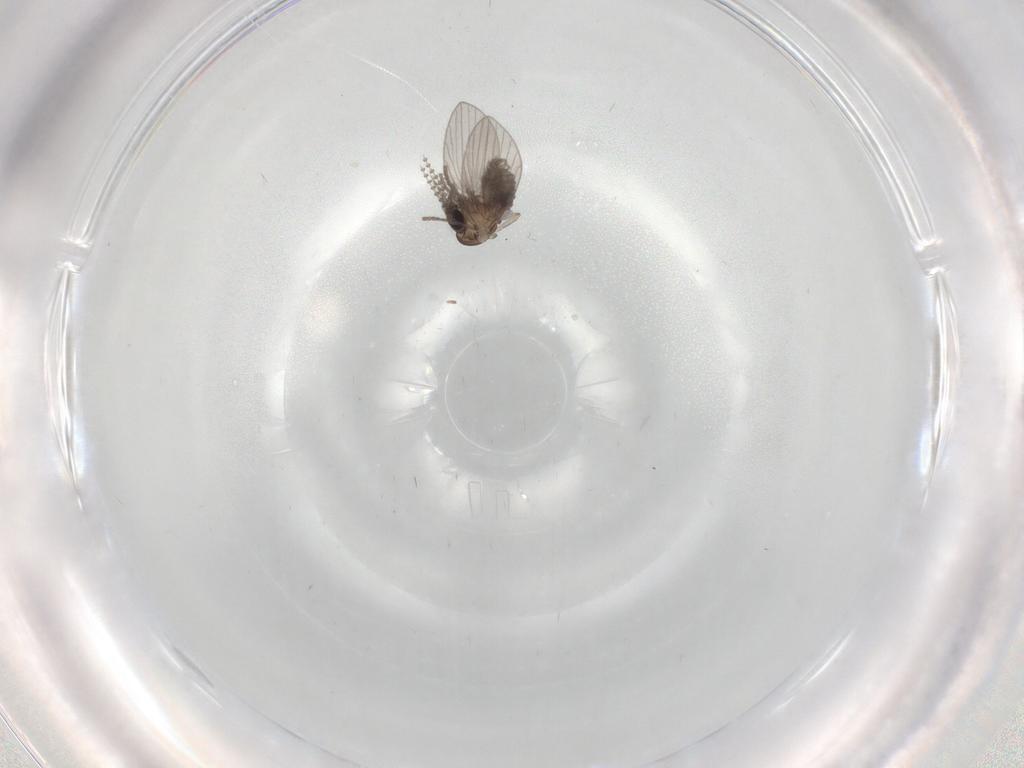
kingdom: Animalia
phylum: Arthropoda
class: Insecta
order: Diptera
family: Psychodidae
